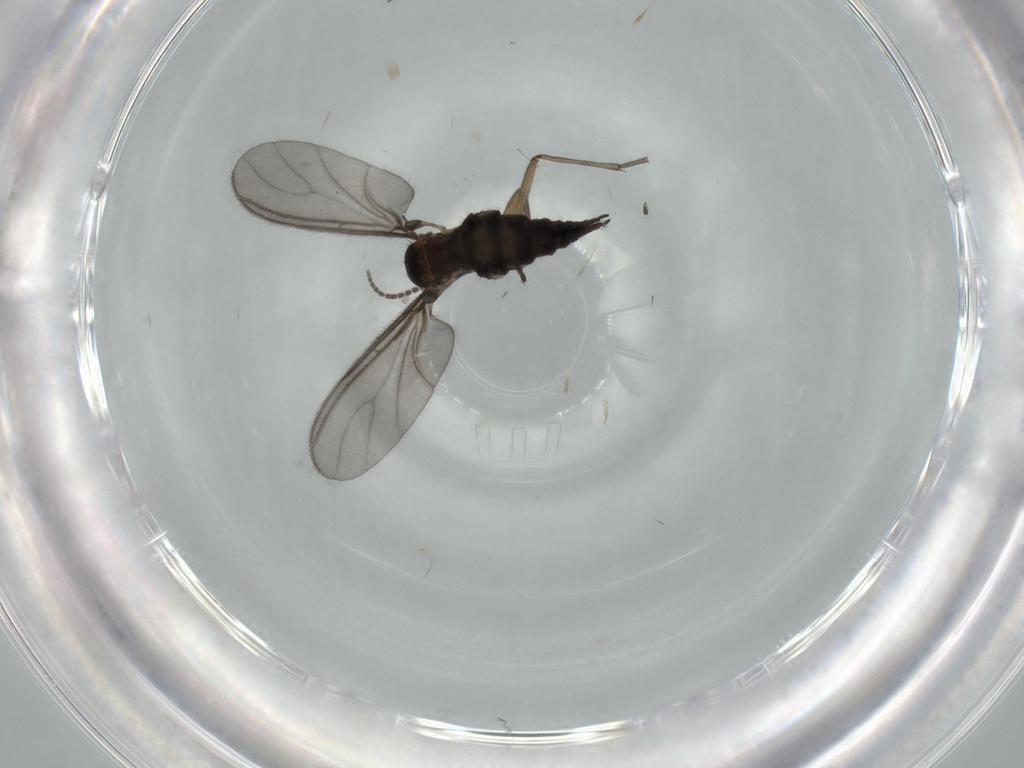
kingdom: Animalia
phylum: Arthropoda
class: Insecta
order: Diptera
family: Sciaridae
